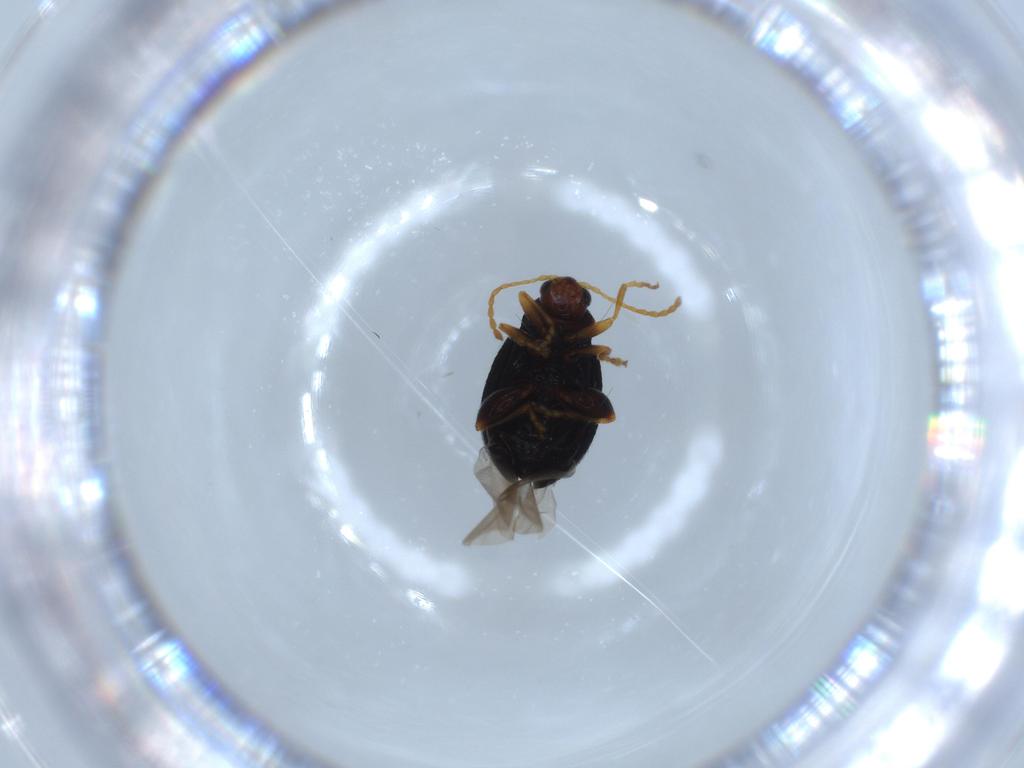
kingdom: Animalia
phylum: Arthropoda
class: Insecta
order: Coleoptera
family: Chrysomelidae
